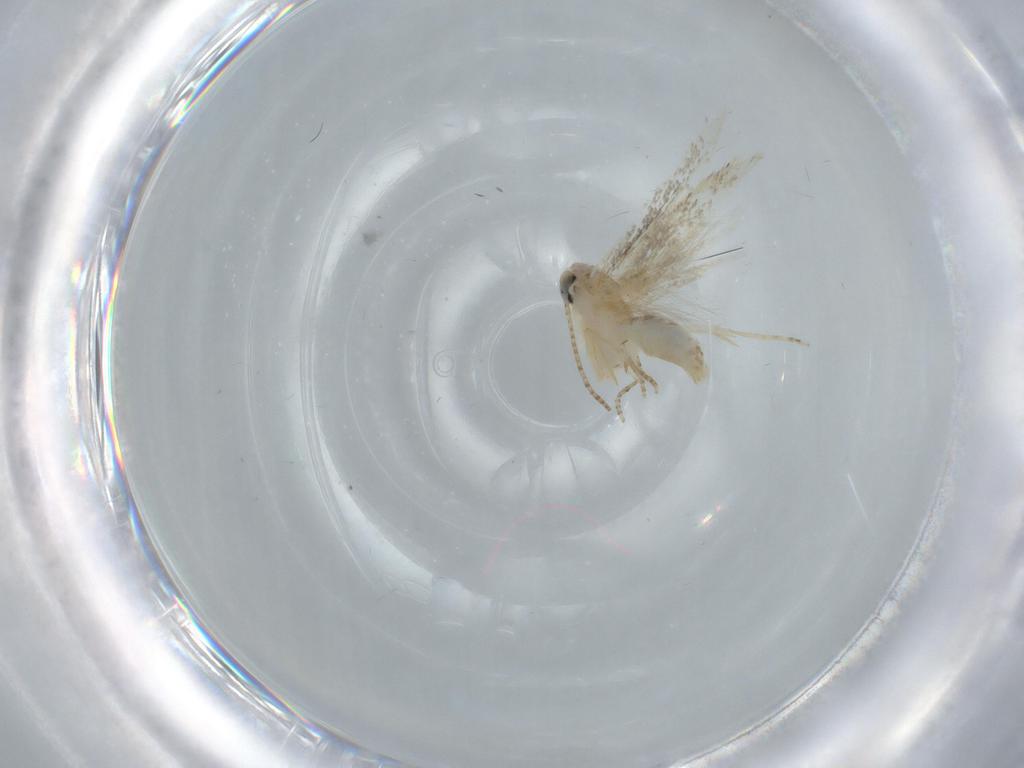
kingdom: Animalia
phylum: Arthropoda
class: Insecta
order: Lepidoptera
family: Bucculatricidae
